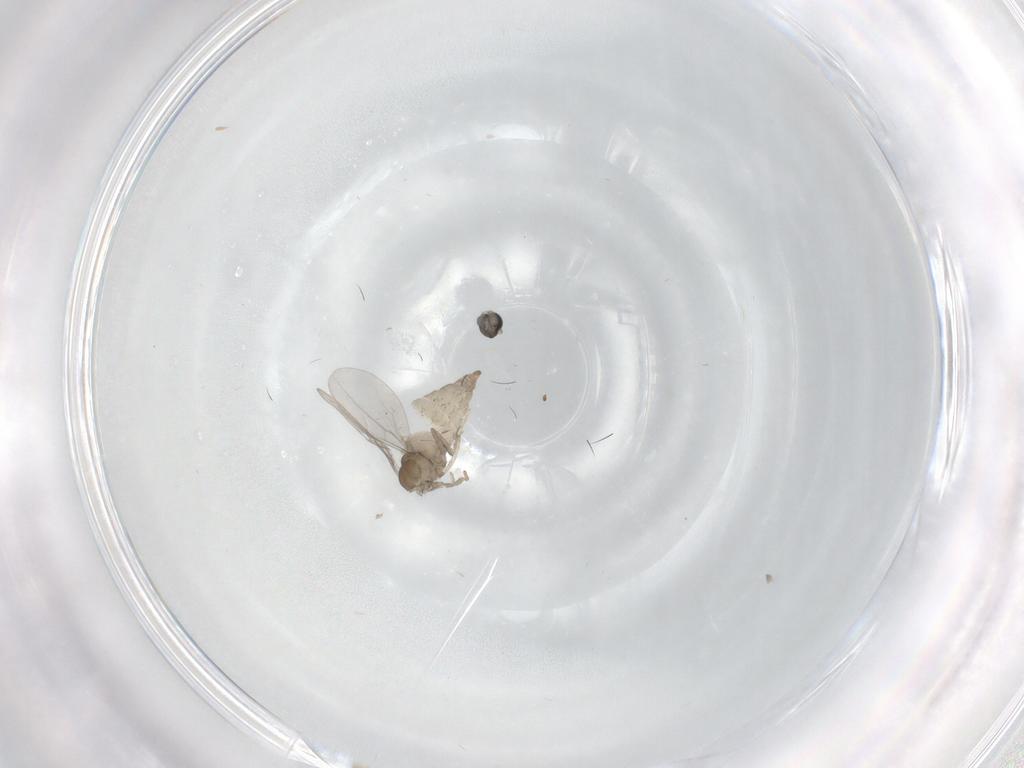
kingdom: Animalia
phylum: Arthropoda
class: Insecta
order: Diptera
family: Cecidomyiidae
